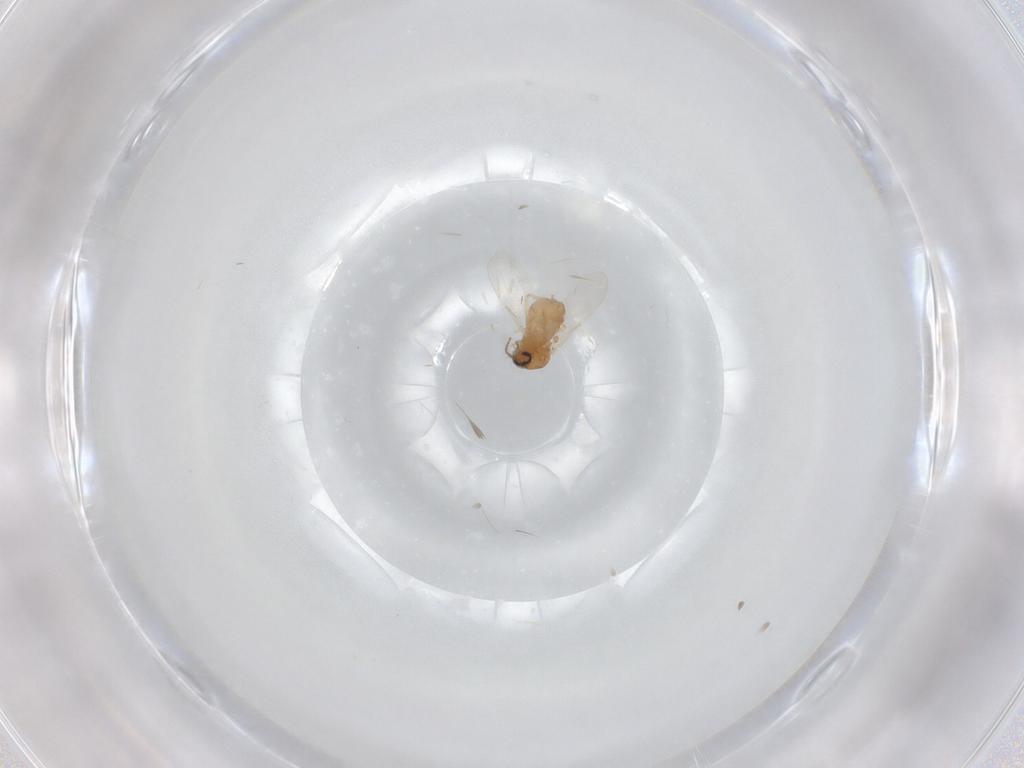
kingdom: Animalia
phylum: Arthropoda
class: Insecta
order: Diptera
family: Ceratopogonidae
